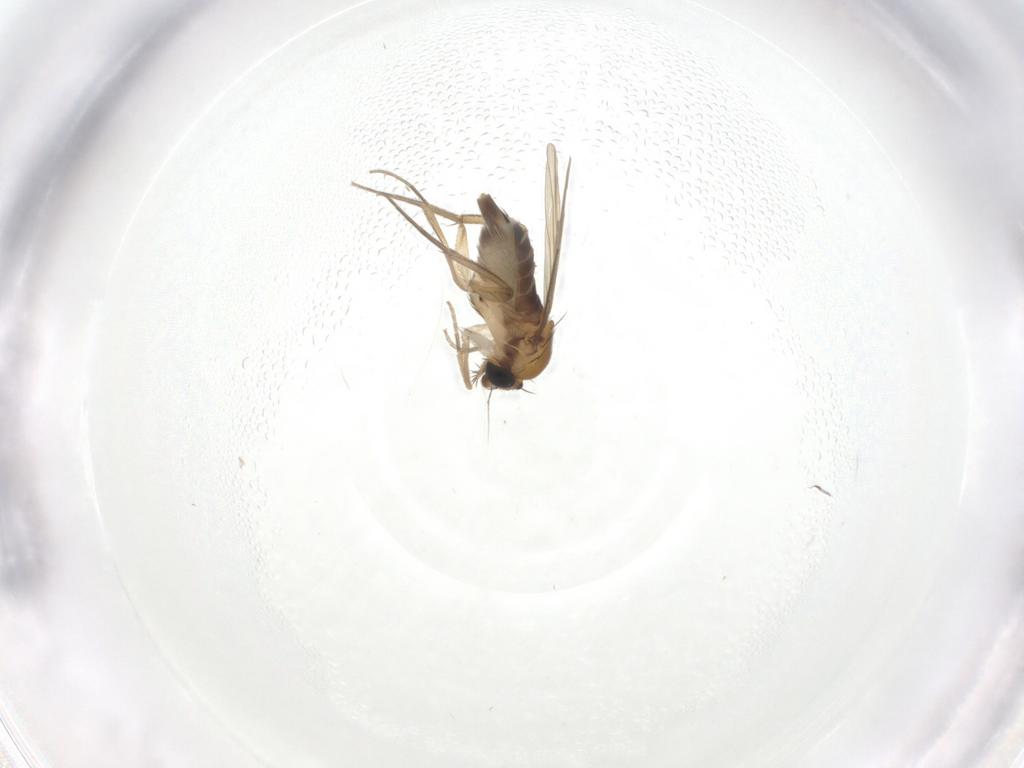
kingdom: Animalia
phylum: Arthropoda
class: Insecta
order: Diptera
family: Phoridae
